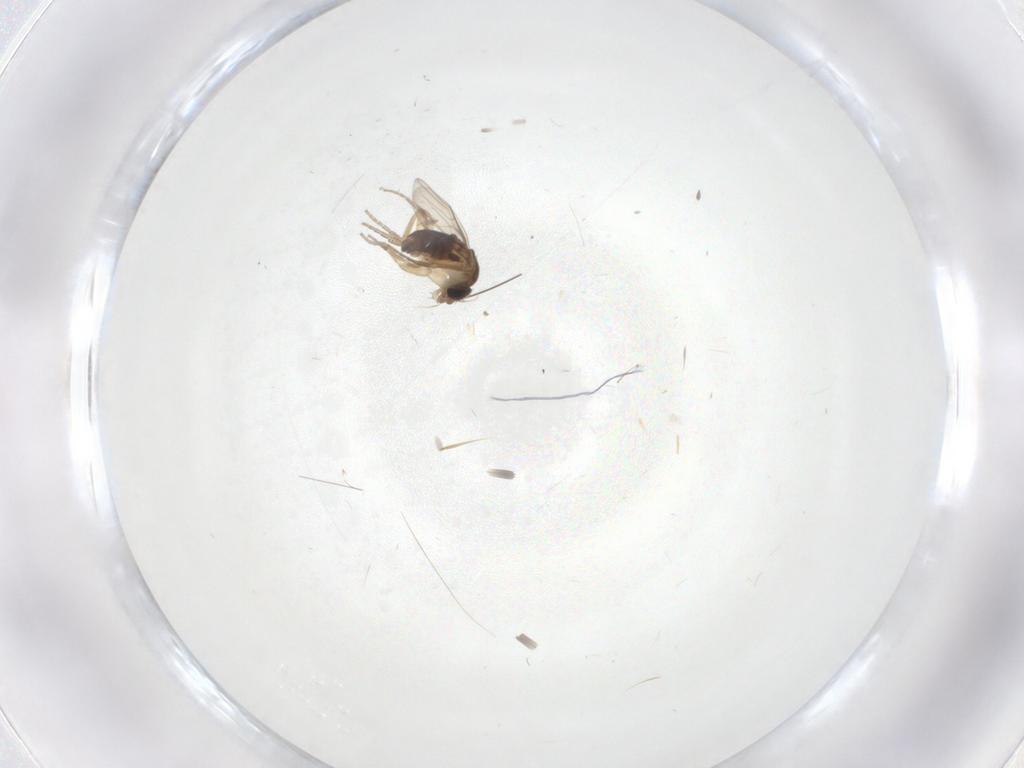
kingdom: Animalia
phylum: Arthropoda
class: Insecta
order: Diptera
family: Phoridae
